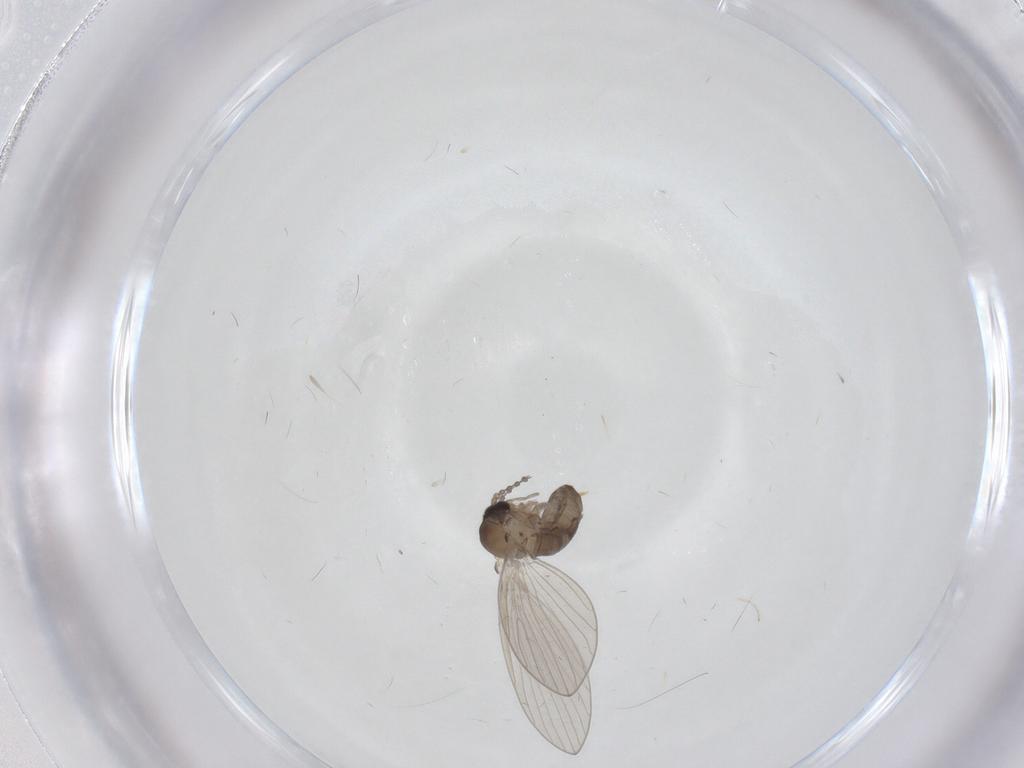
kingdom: Animalia
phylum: Arthropoda
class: Insecta
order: Diptera
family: Cecidomyiidae
